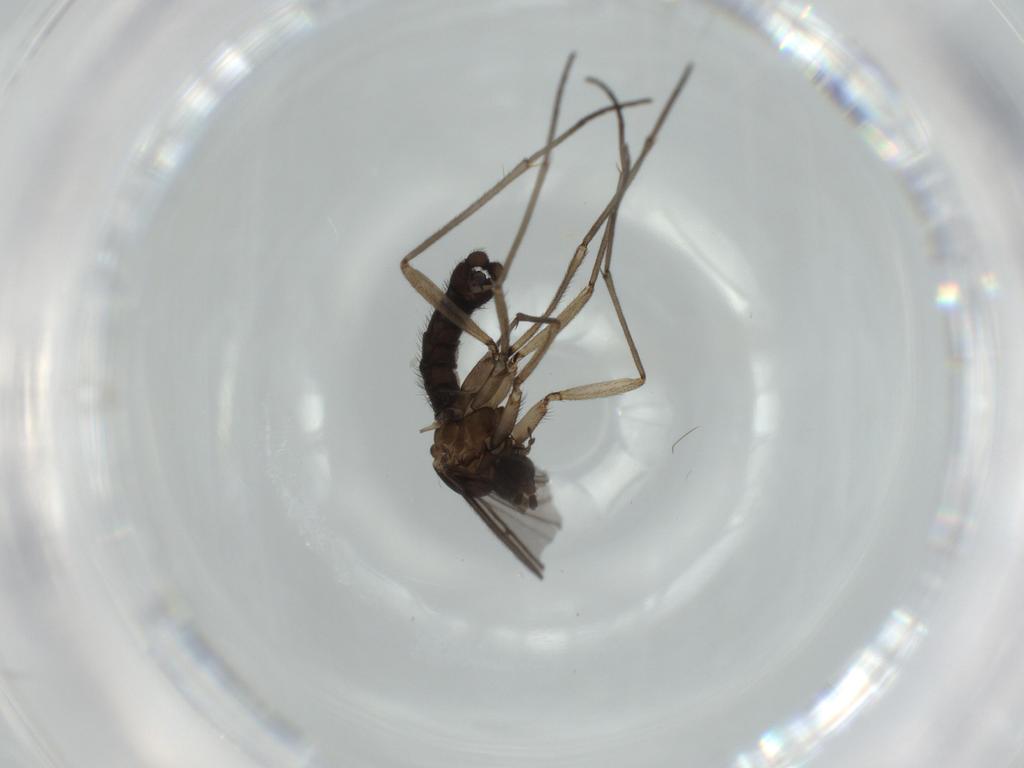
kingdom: Animalia
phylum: Arthropoda
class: Insecta
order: Diptera
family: Sciaridae
